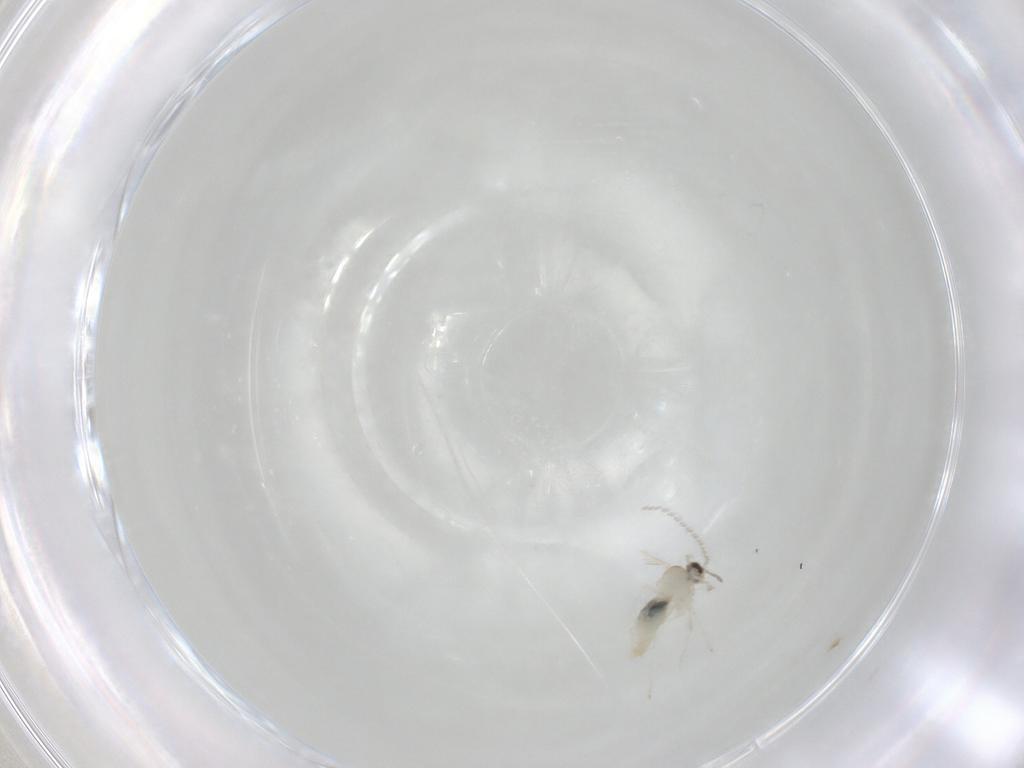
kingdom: Animalia
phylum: Arthropoda
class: Insecta
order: Diptera
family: Cecidomyiidae
